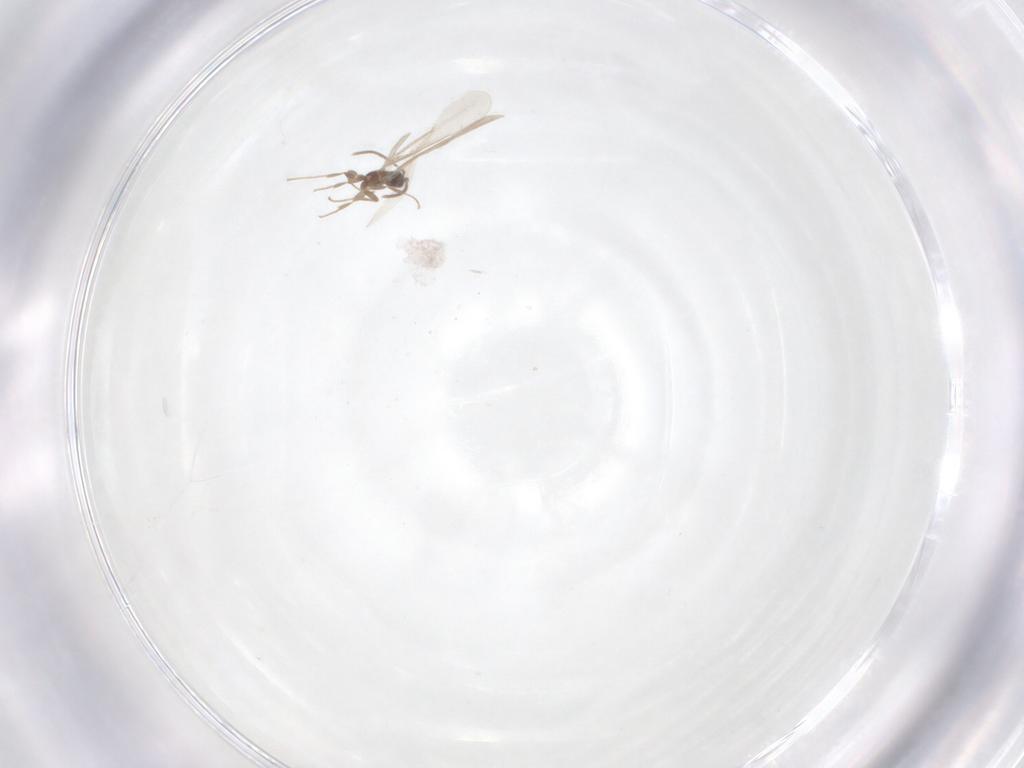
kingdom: Animalia
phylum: Arthropoda
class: Insecta
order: Hymenoptera
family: Formicidae
